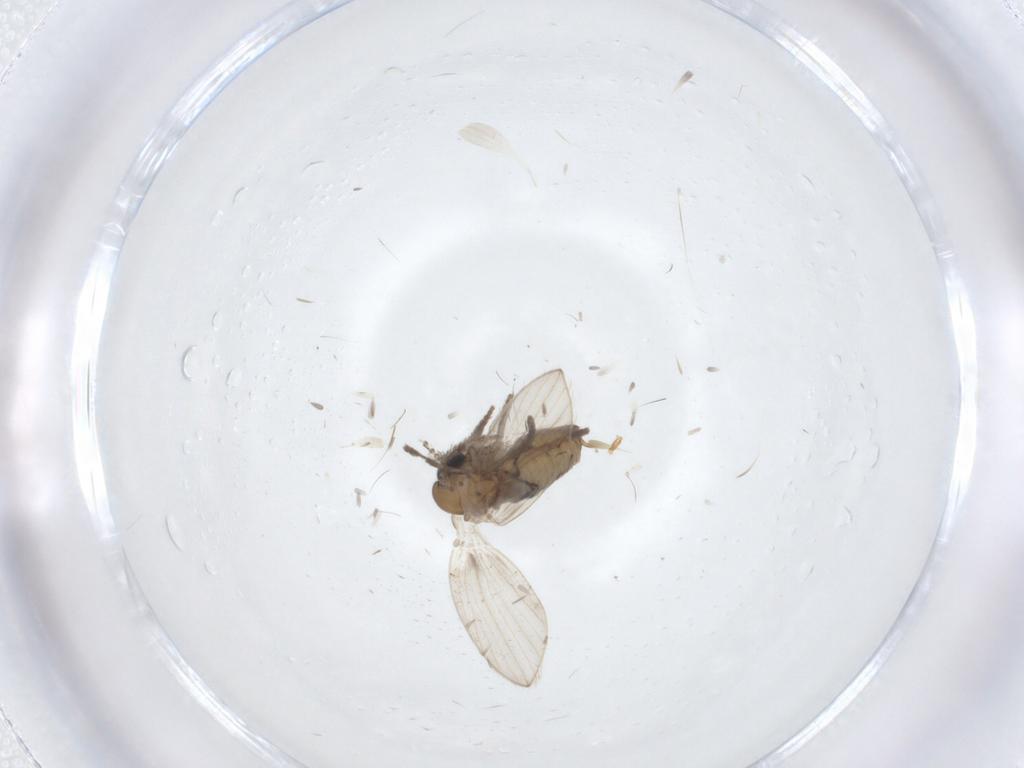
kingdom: Animalia
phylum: Arthropoda
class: Insecta
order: Diptera
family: Psychodidae
